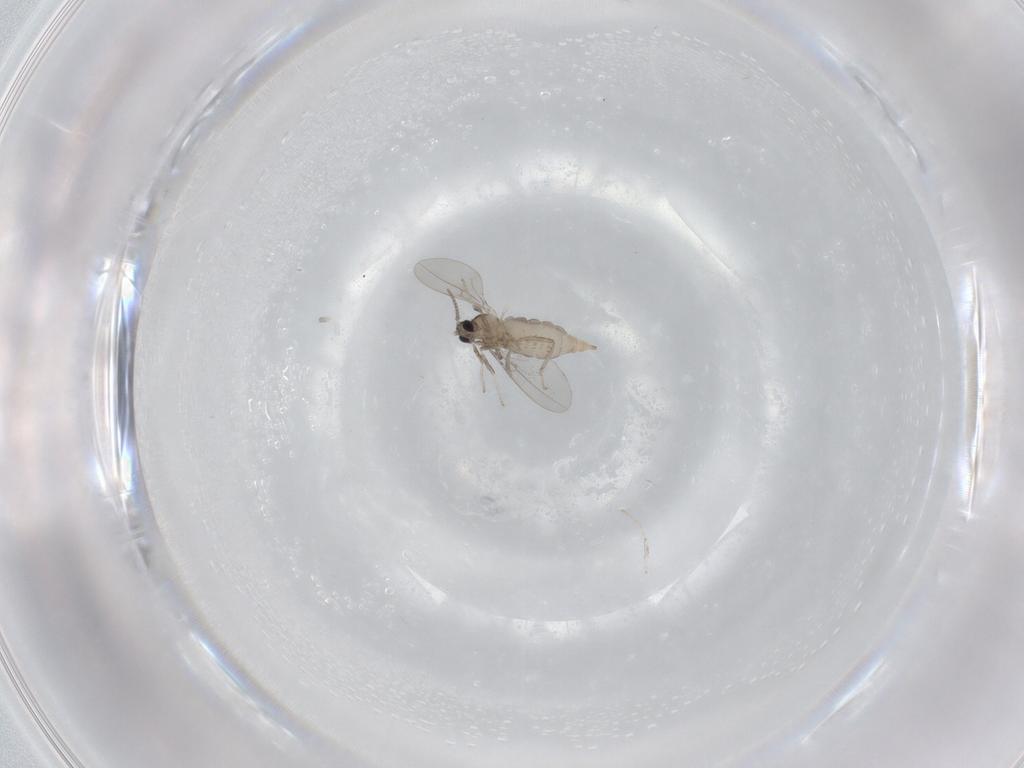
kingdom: Animalia
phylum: Arthropoda
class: Insecta
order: Diptera
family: Cecidomyiidae
